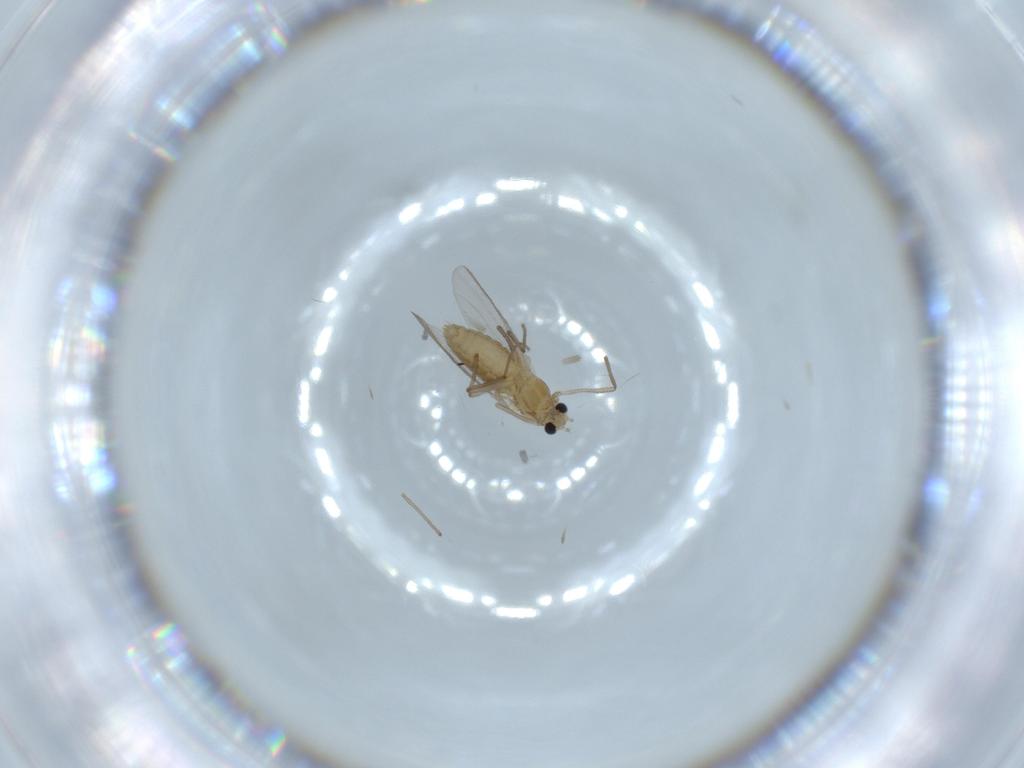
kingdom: Animalia
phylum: Arthropoda
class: Insecta
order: Diptera
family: Chironomidae
